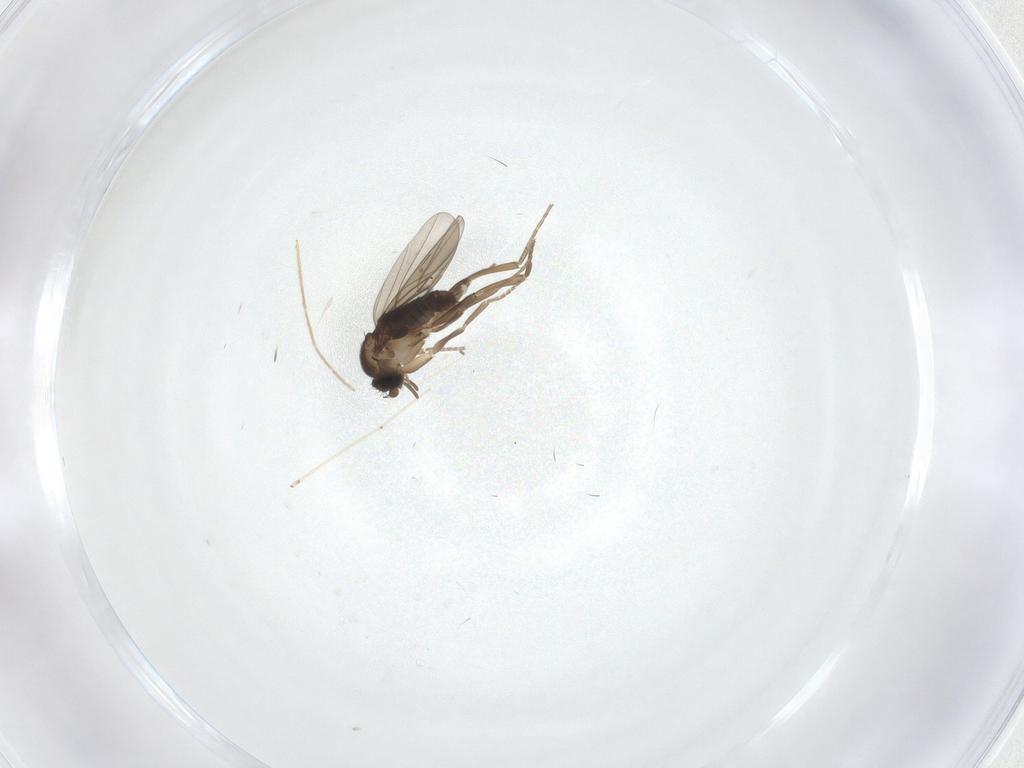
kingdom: Animalia
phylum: Arthropoda
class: Insecta
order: Diptera
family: Chironomidae
